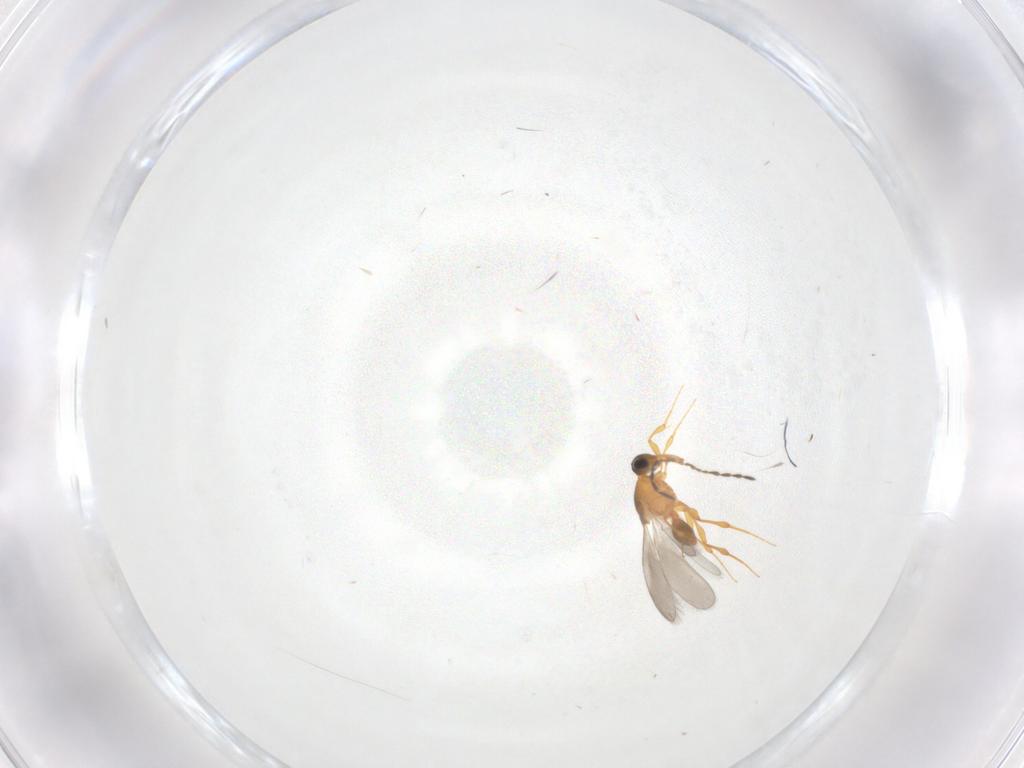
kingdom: Animalia
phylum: Arthropoda
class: Insecta
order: Hymenoptera
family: Platygastridae
